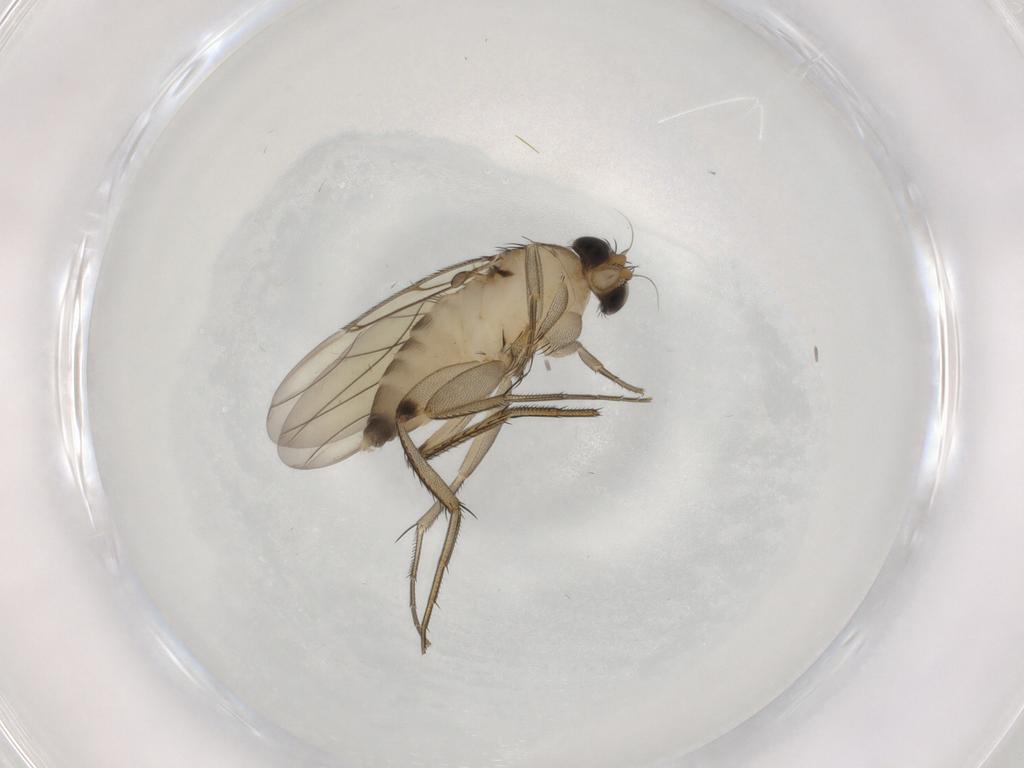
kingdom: Animalia
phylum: Arthropoda
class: Insecta
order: Diptera
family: Phoridae
